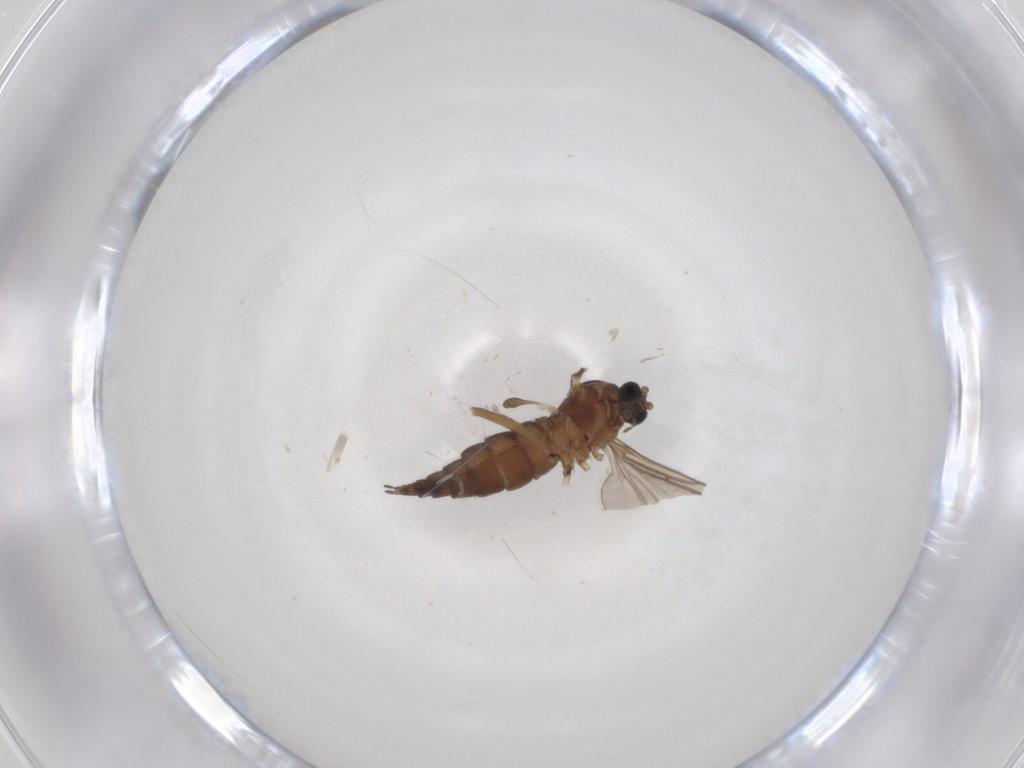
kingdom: Animalia
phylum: Arthropoda
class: Insecta
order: Diptera
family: Sciaridae
